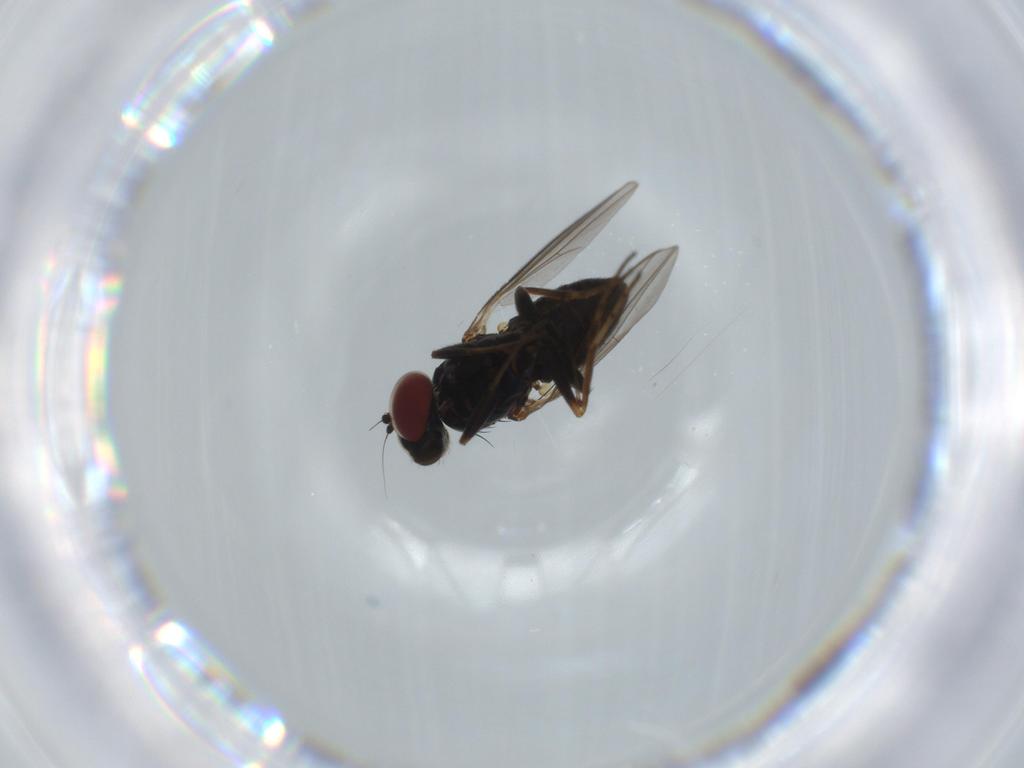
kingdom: Animalia
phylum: Arthropoda
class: Insecta
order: Diptera
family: Dolichopodidae
